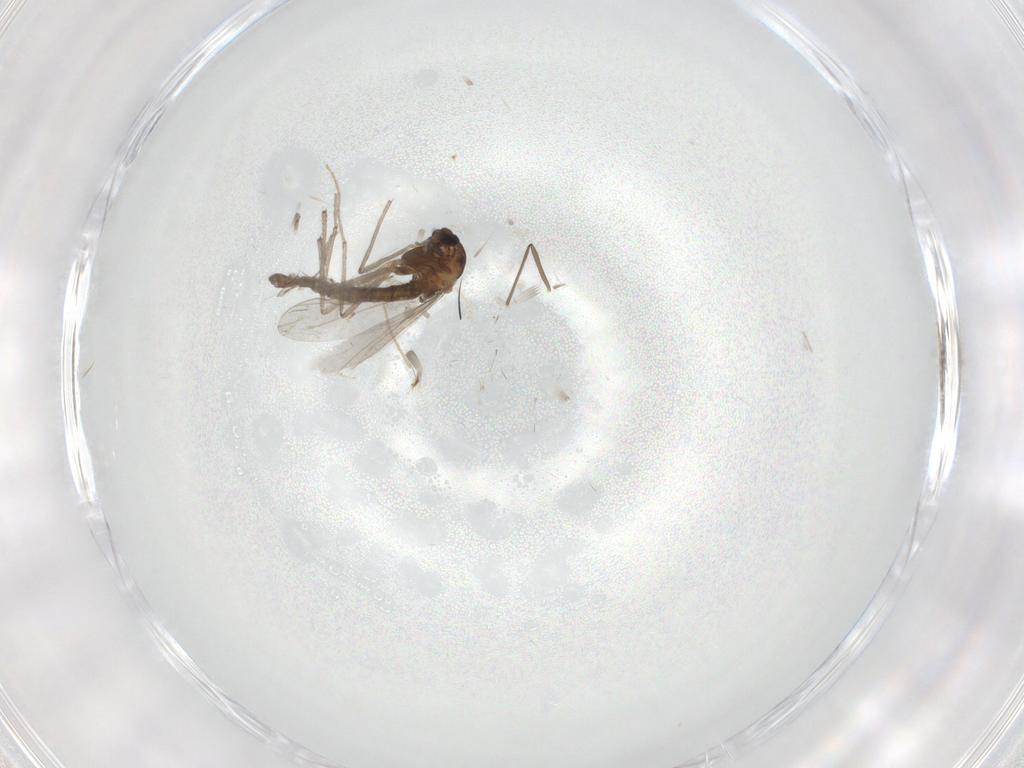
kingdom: Animalia
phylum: Arthropoda
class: Insecta
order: Diptera
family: Chironomidae
